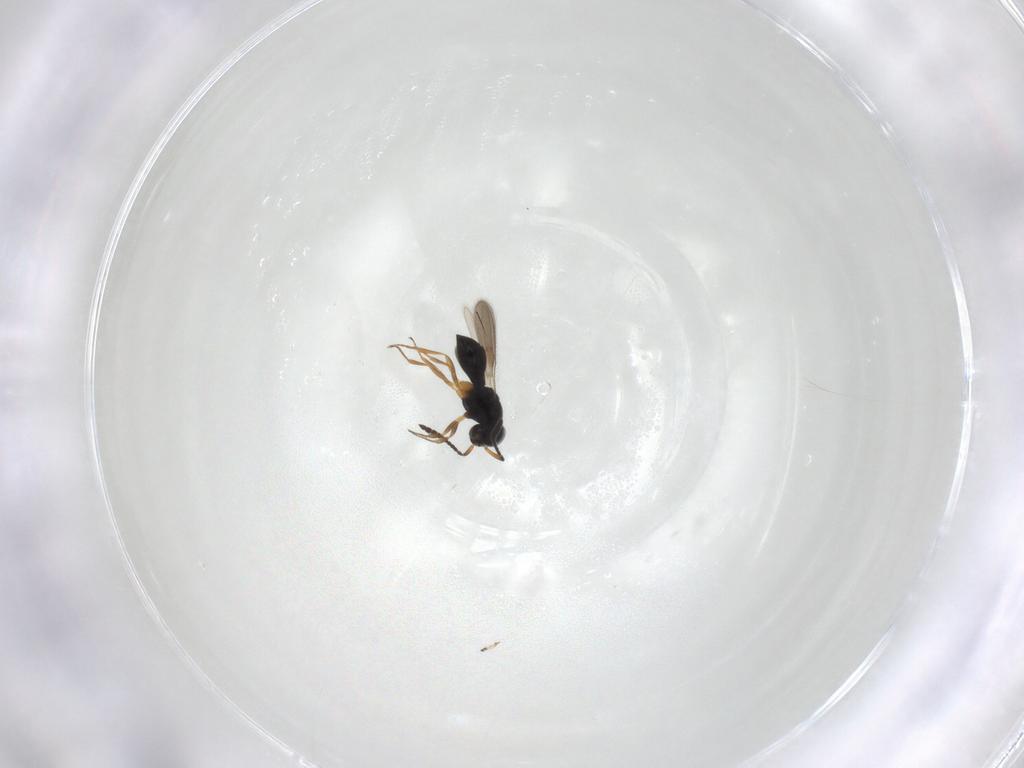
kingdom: Animalia
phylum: Arthropoda
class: Insecta
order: Hymenoptera
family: Scelionidae
